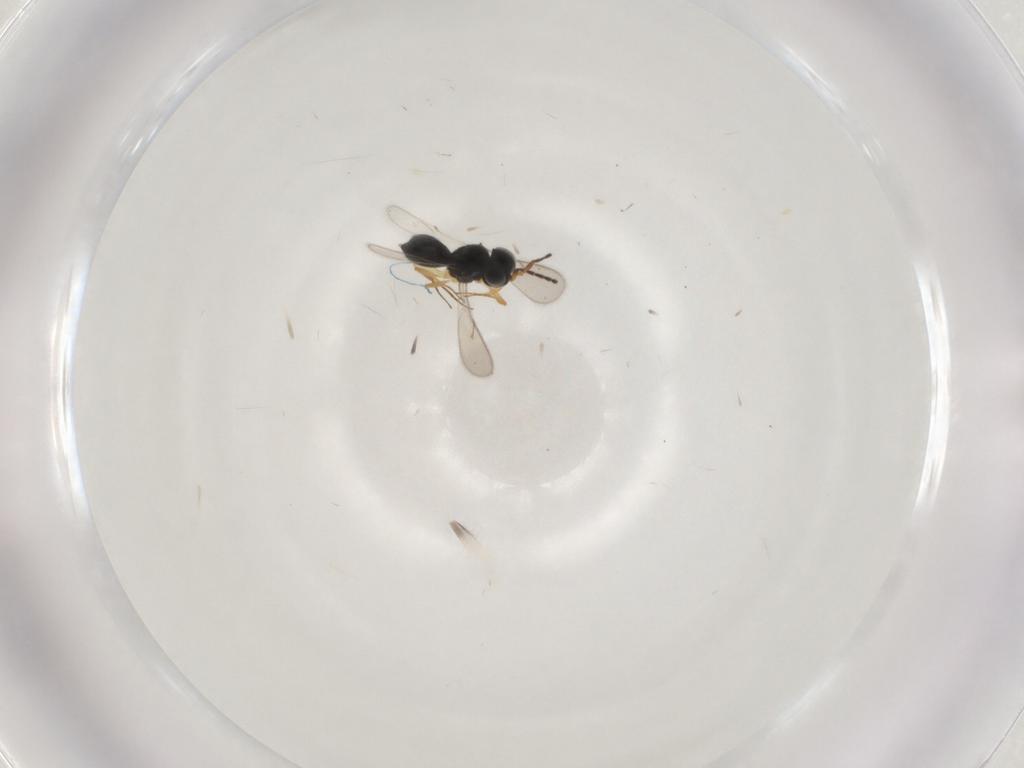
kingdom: Animalia
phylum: Arthropoda
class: Insecta
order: Hymenoptera
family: Scelionidae
